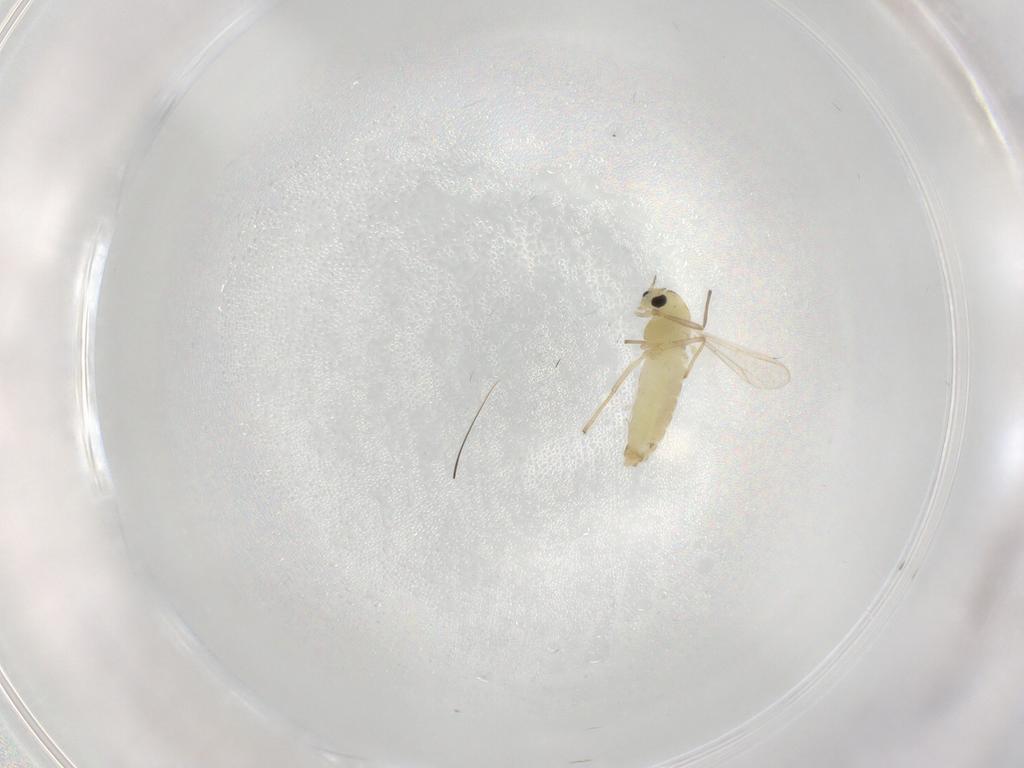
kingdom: Animalia
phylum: Arthropoda
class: Insecta
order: Diptera
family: Chironomidae
